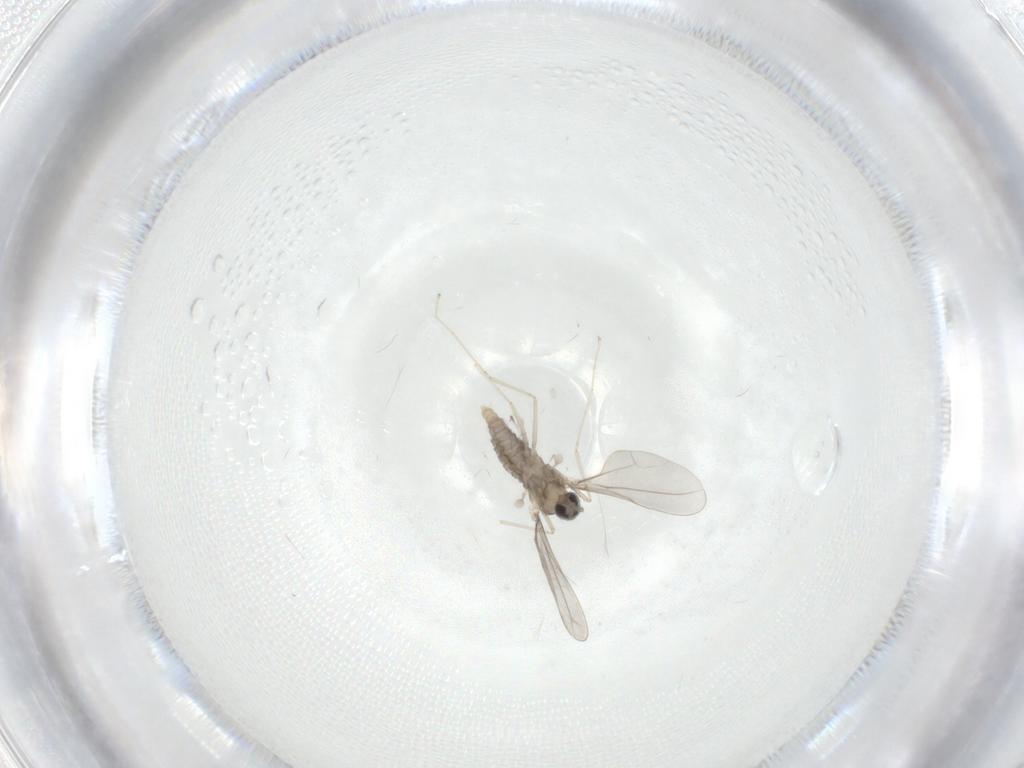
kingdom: Animalia
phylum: Arthropoda
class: Insecta
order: Diptera
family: Cecidomyiidae
